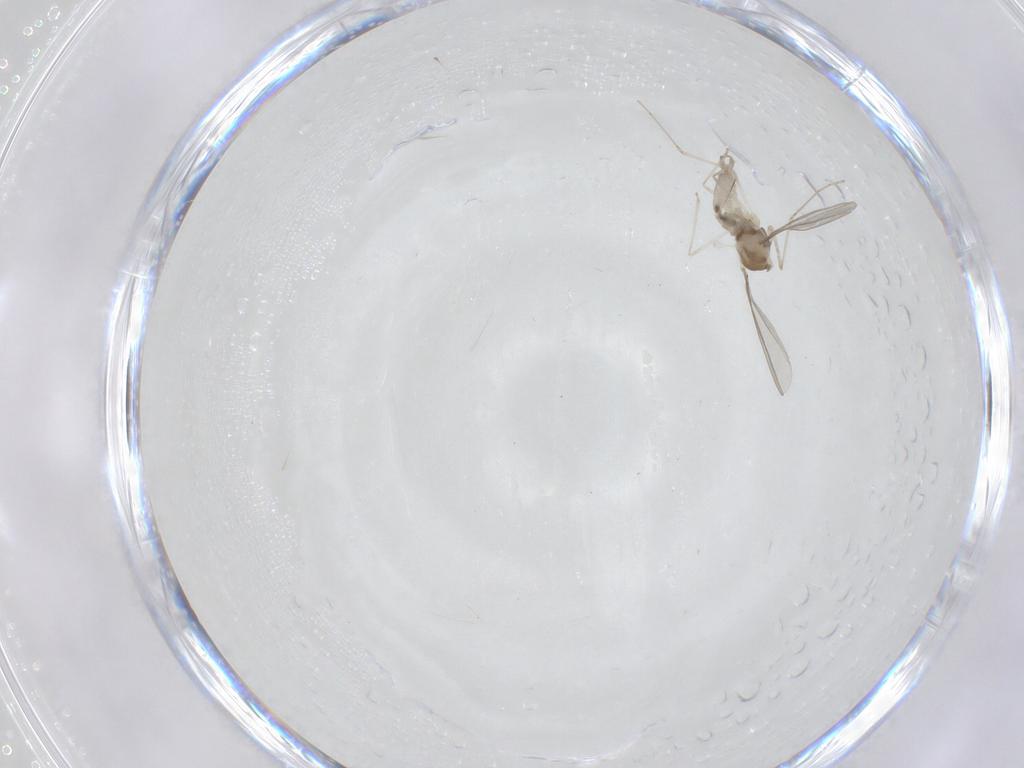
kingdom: Animalia
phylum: Arthropoda
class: Insecta
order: Diptera
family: Cecidomyiidae
